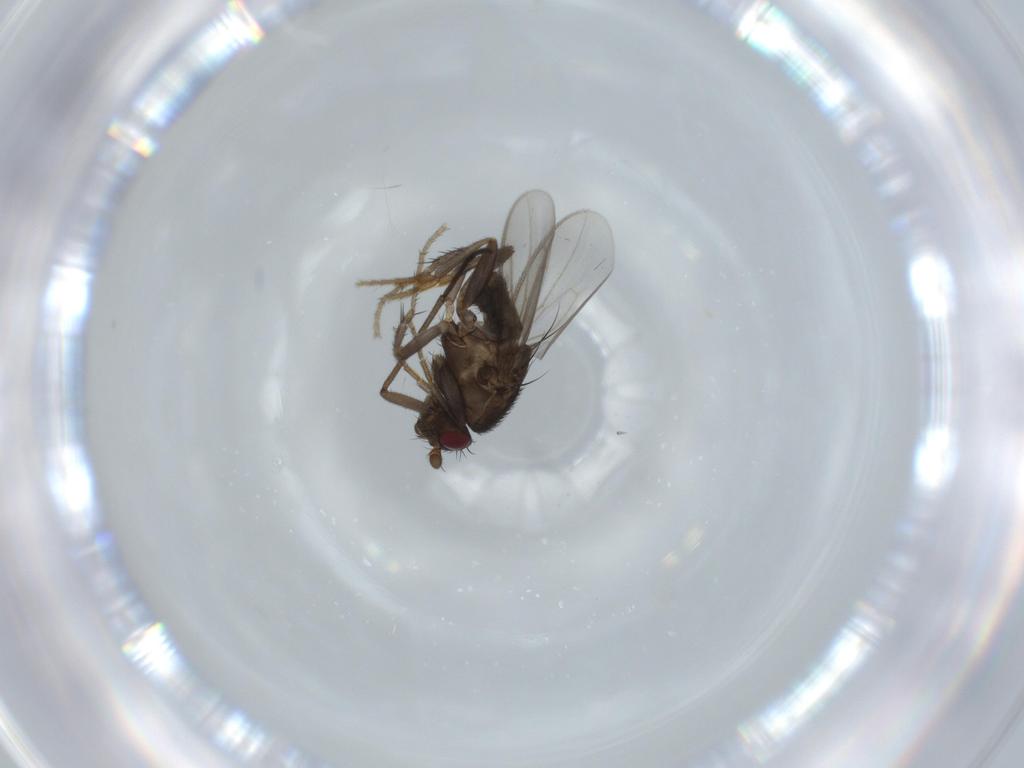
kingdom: Animalia
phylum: Arthropoda
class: Insecta
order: Diptera
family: Sphaeroceridae
